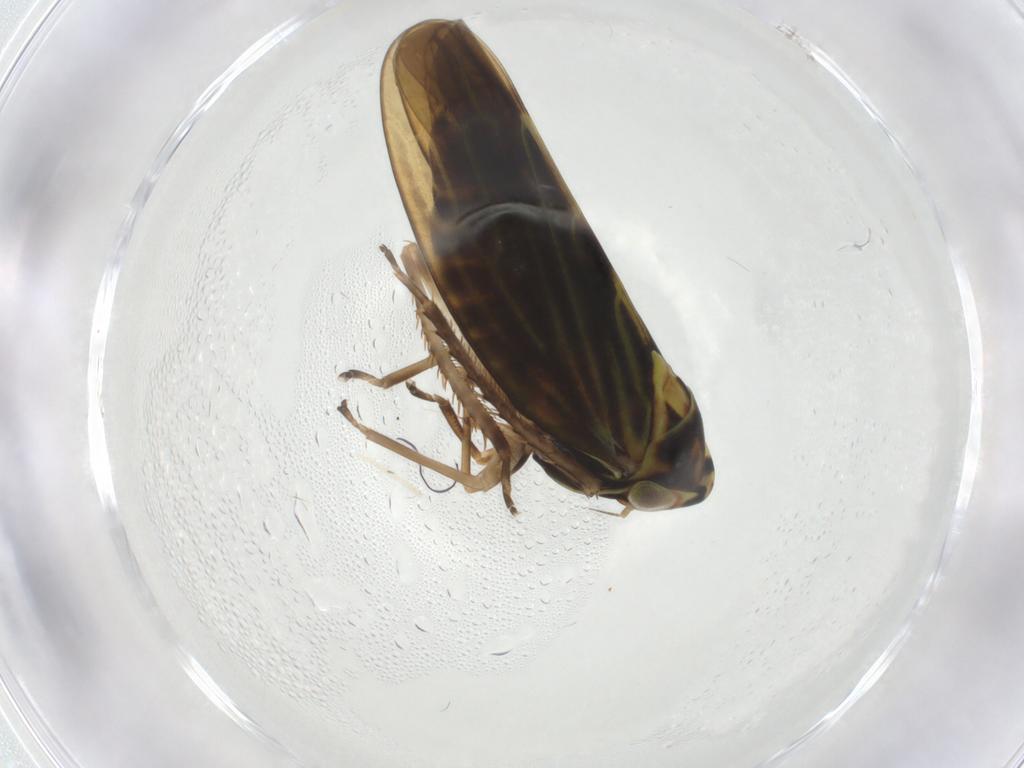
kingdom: Animalia
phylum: Arthropoda
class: Insecta
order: Hemiptera
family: Cicadellidae
